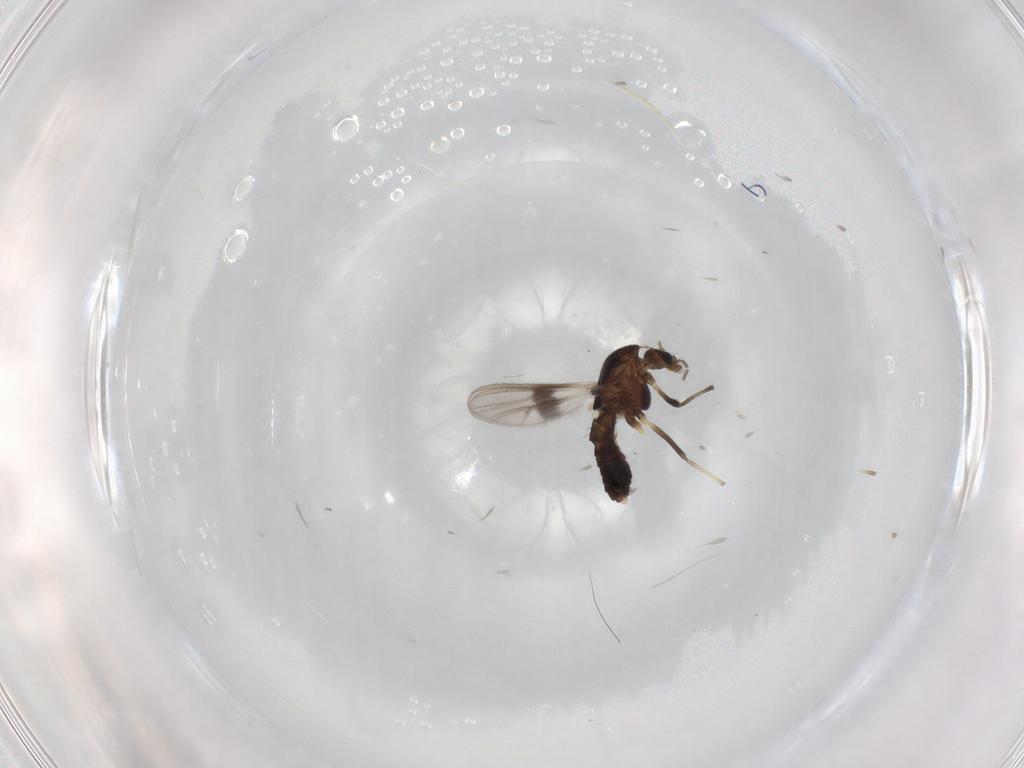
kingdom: Animalia
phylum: Arthropoda
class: Insecta
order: Diptera
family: Chironomidae
